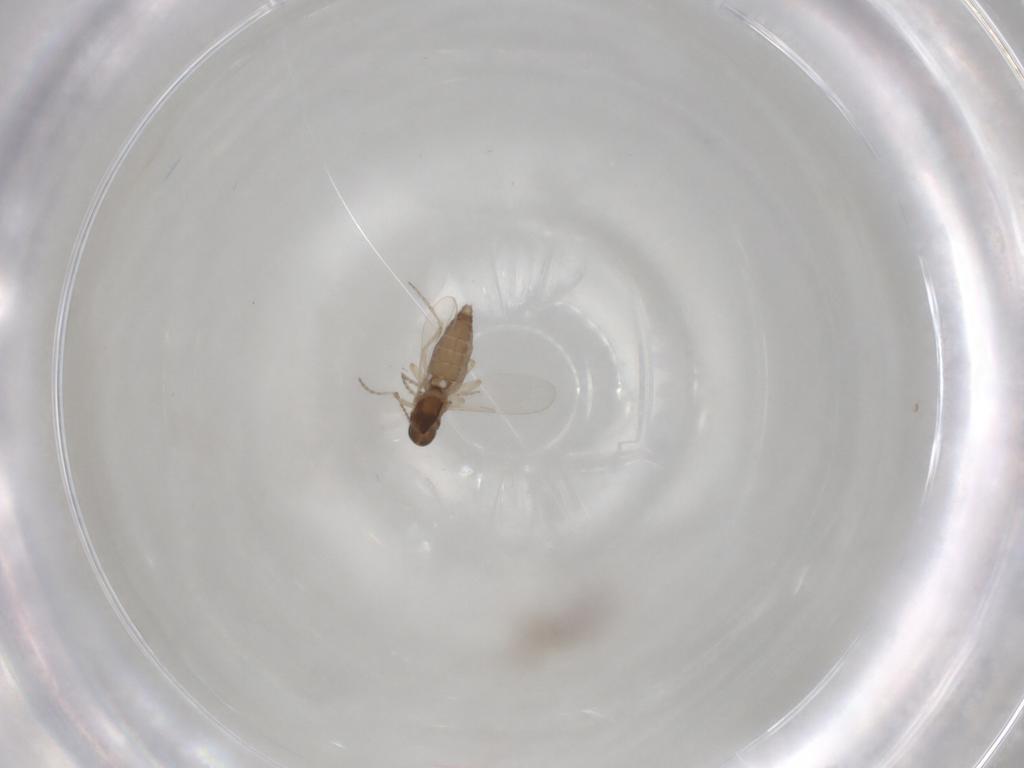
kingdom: Animalia
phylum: Arthropoda
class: Insecta
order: Diptera
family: Ceratopogonidae
